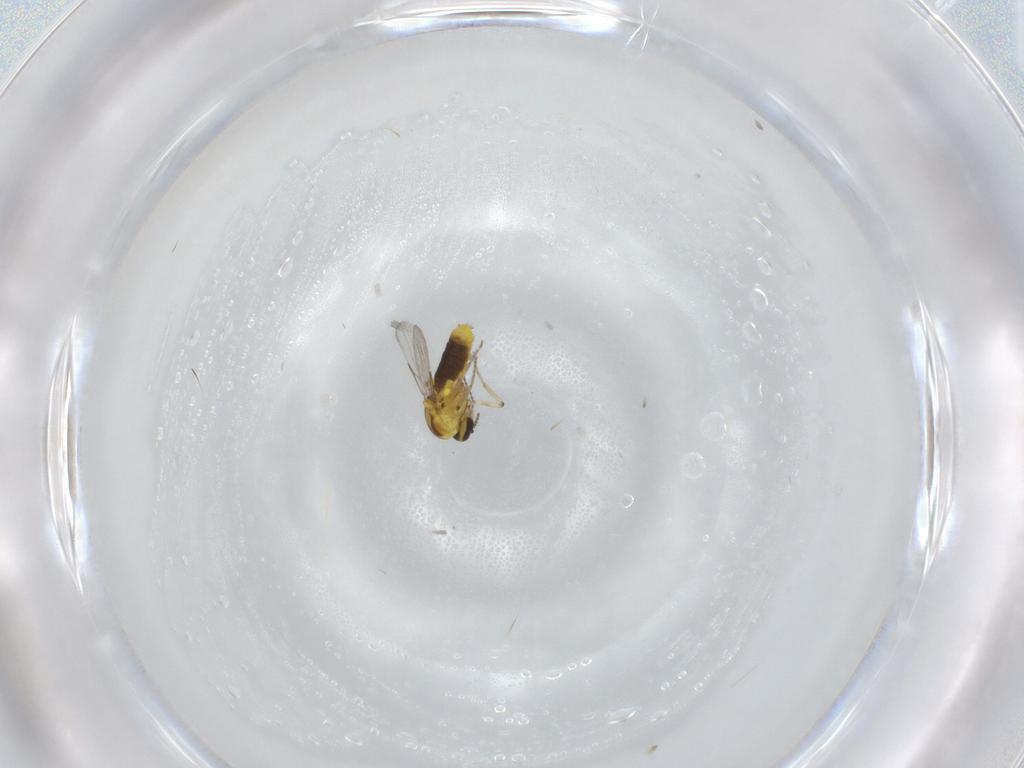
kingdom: Animalia
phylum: Arthropoda
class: Insecta
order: Diptera
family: Ceratopogonidae
